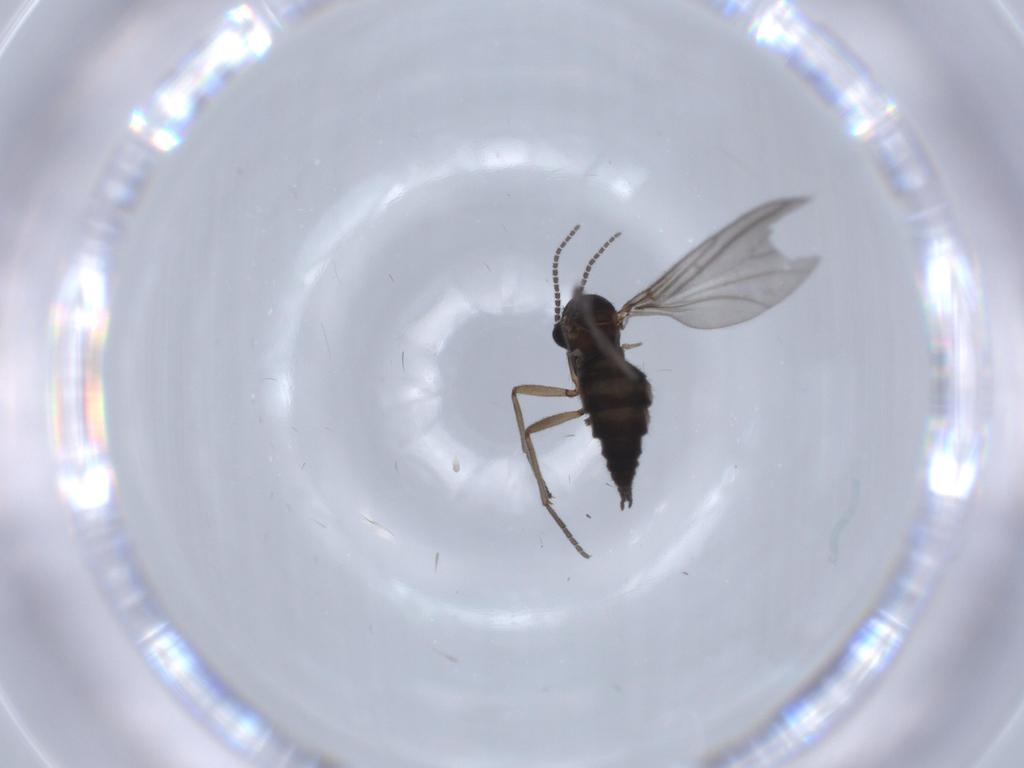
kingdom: Animalia
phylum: Arthropoda
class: Insecta
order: Diptera
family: Sciaridae
